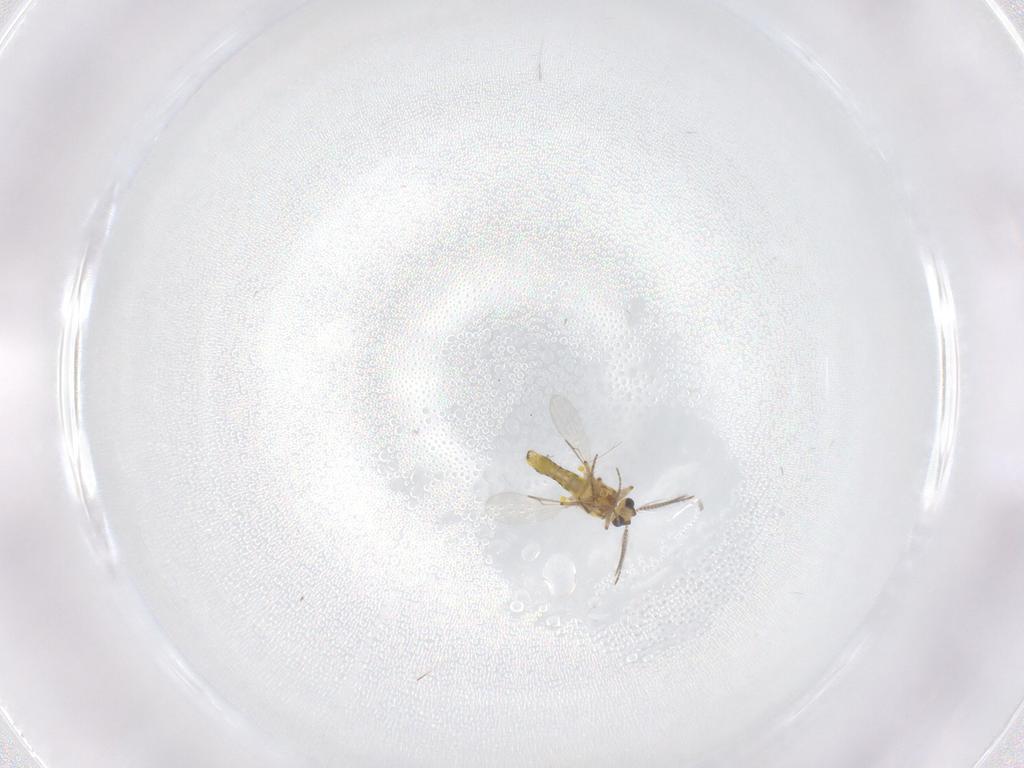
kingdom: Animalia
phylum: Arthropoda
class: Insecta
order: Diptera
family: Ceratopogonidae
